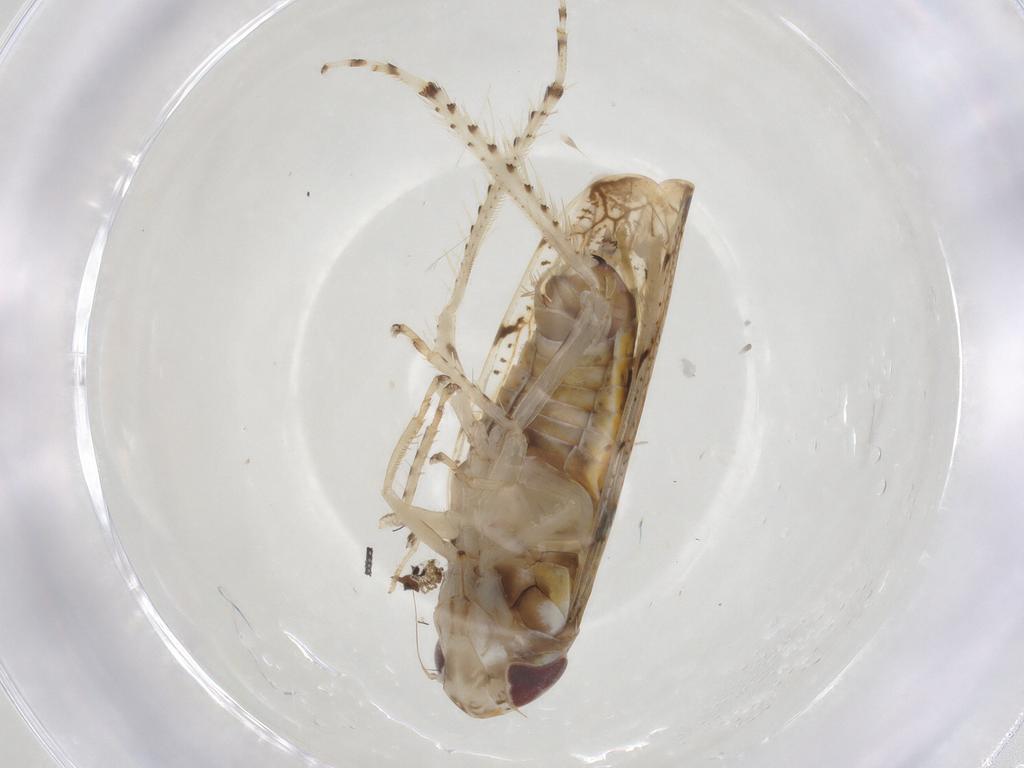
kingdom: Animalia
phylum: Arthropoda
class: Insecta
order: Hemiptera
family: Cicadellidae
